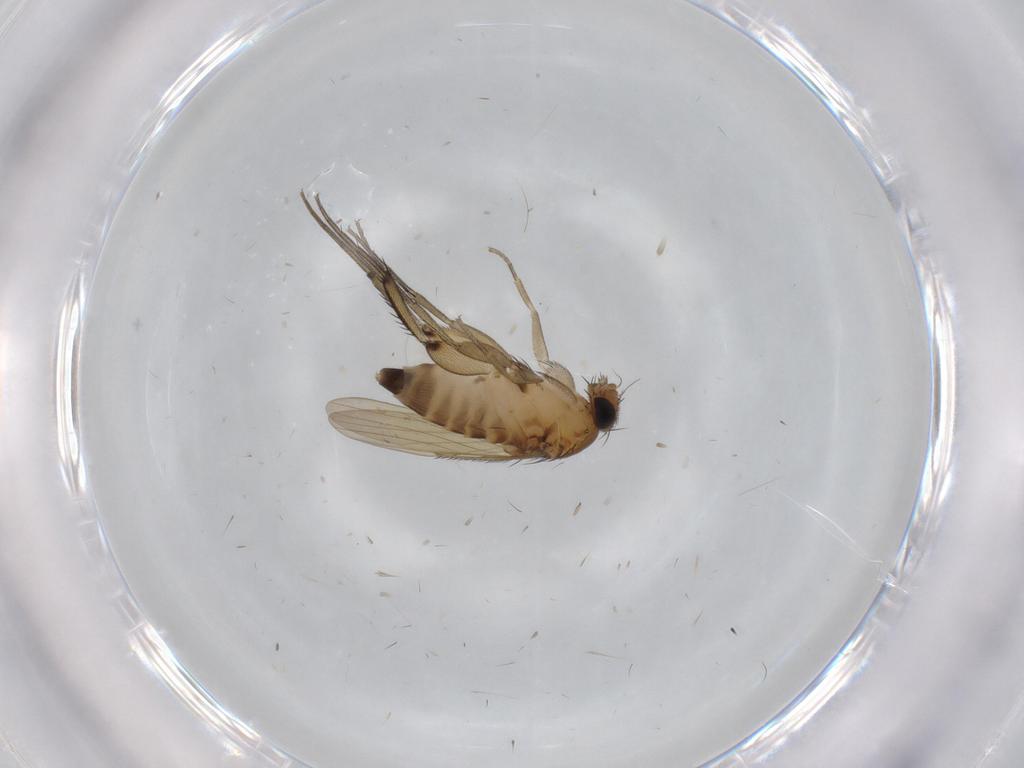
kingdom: Animalia
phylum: Arthropoda
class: Insecta
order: Diptera
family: Phoridae
